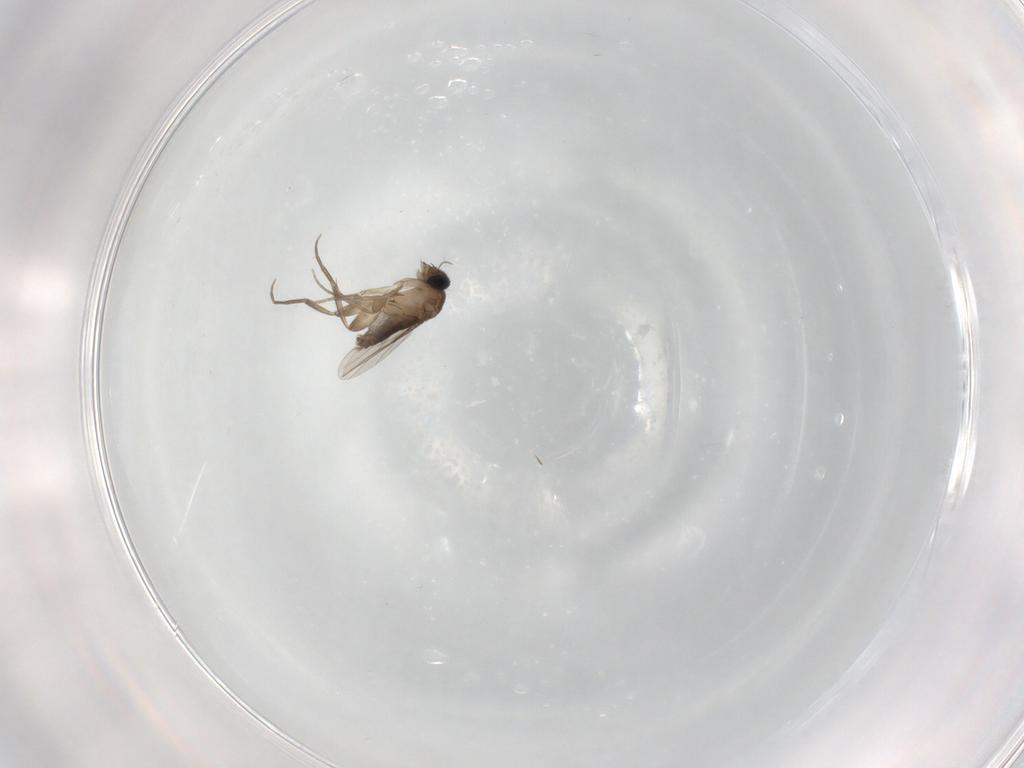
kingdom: Animalia
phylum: Arthropoda
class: Insecta
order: Diptera
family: Phoridae
